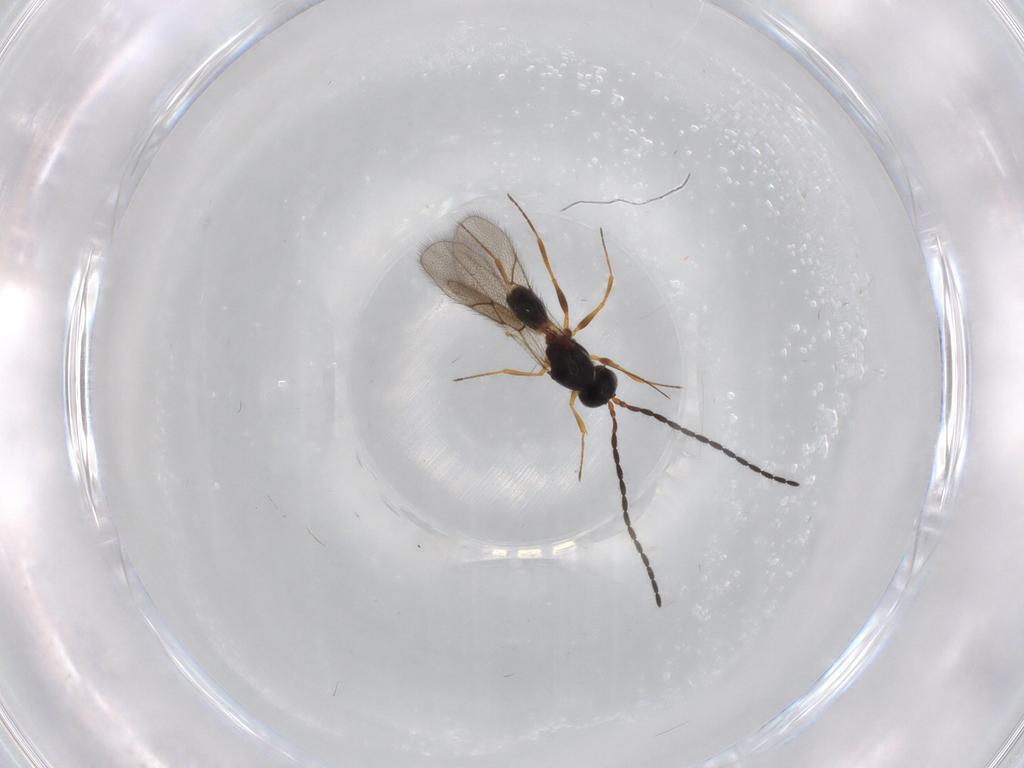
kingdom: Animalia
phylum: Arthropoda
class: Insecta
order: Hymenoptera
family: Figitidae
